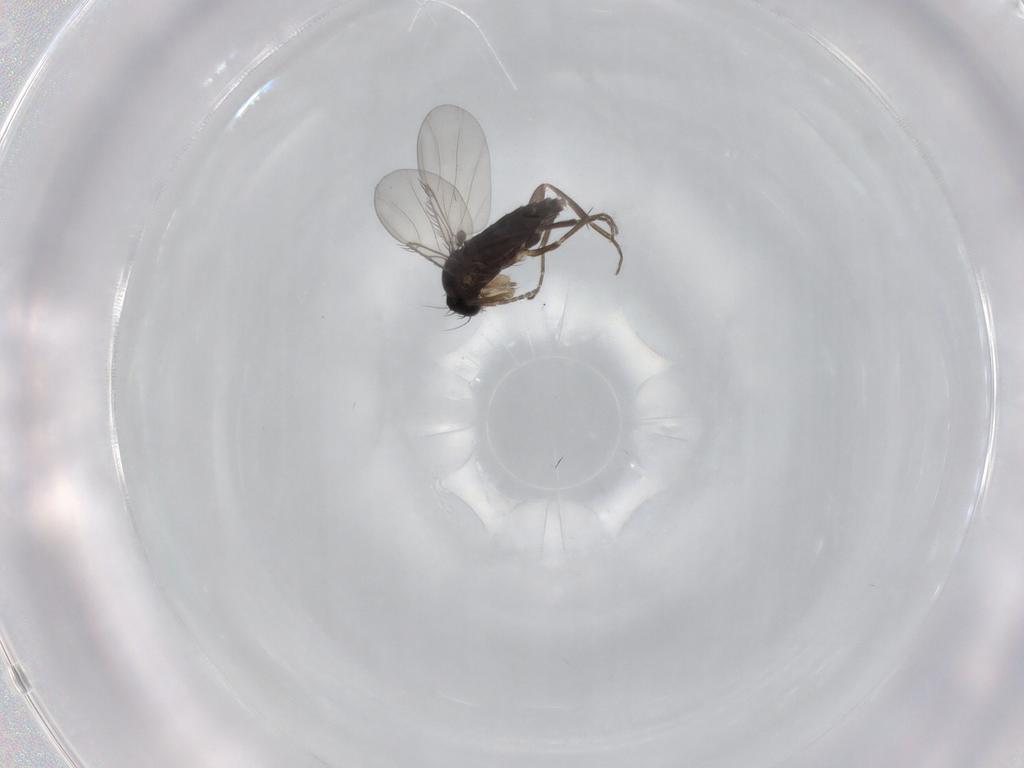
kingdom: Animalia
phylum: Arthropoda
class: Insecta
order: Diptera
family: Phoridae
